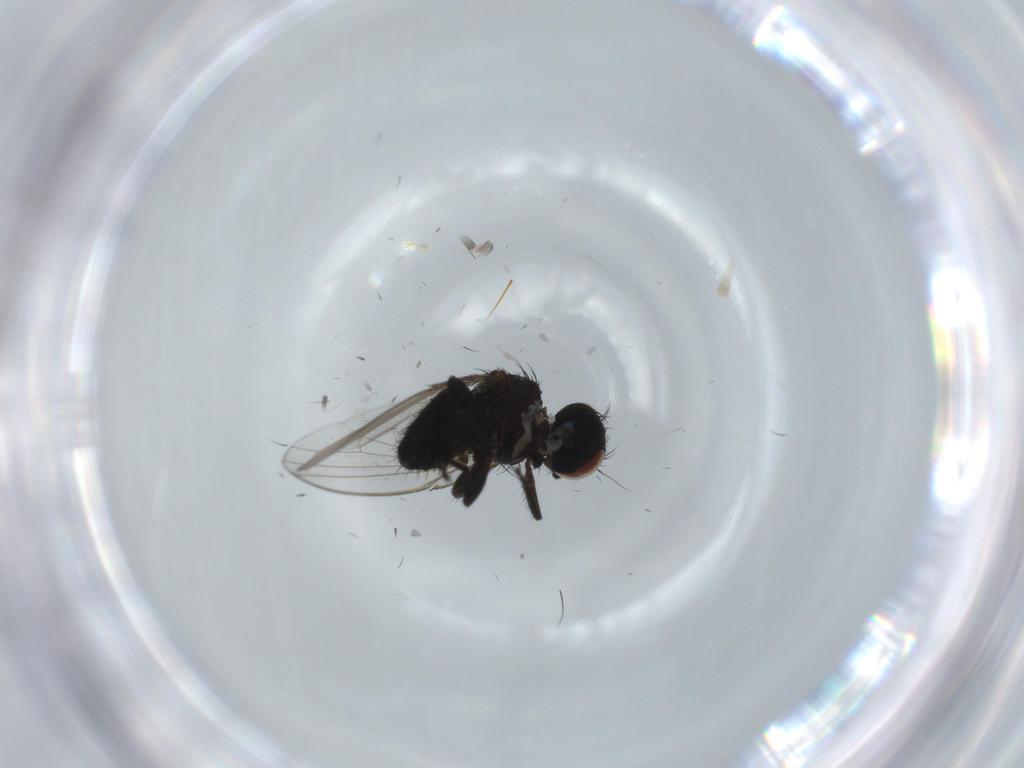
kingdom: Animalia
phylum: Arthropoda
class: Insecta
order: Diptera
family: Milichiidae
